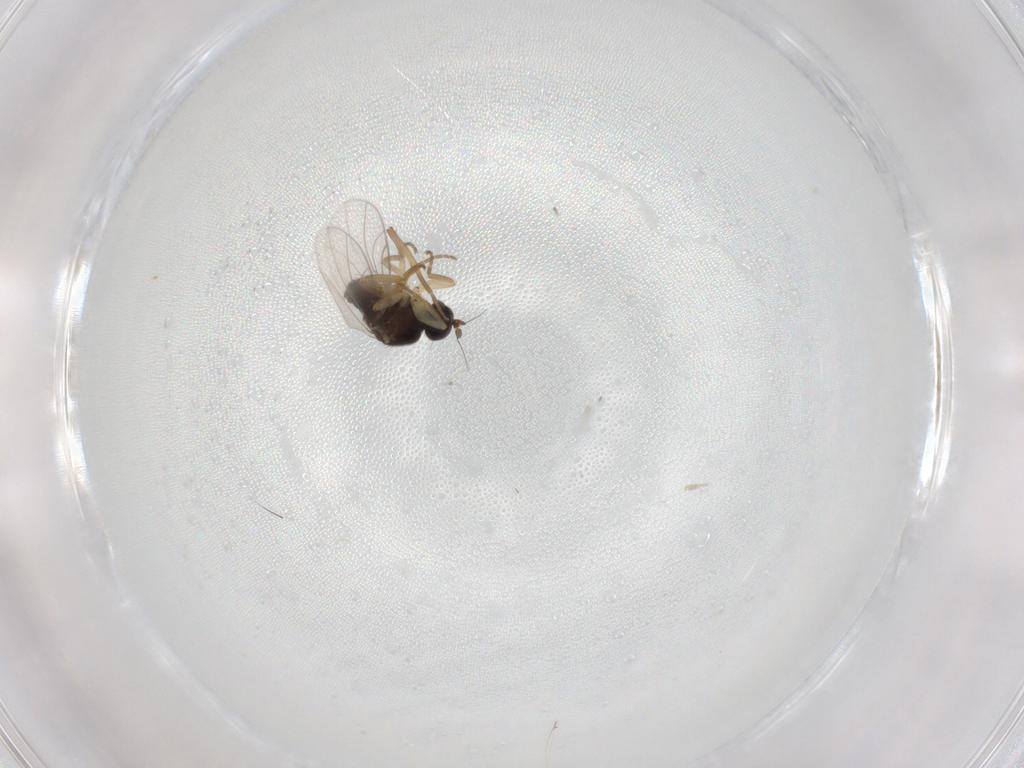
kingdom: Animalia
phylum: Arthropoda
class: Insecta
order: Diptera
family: Hybotidae
